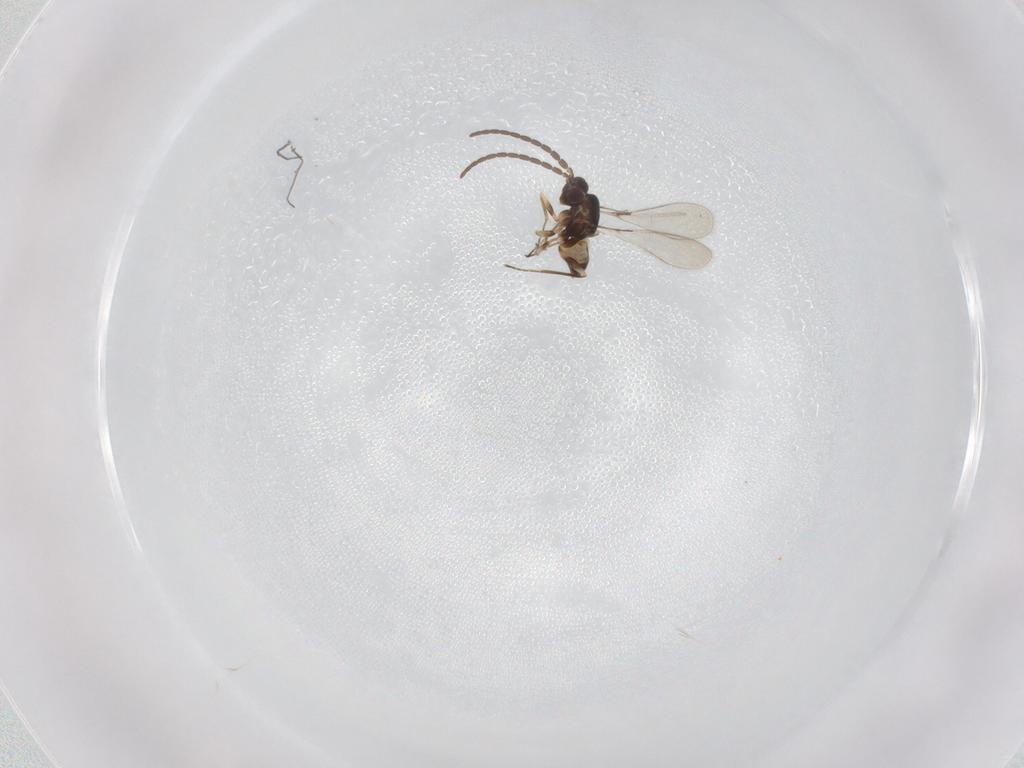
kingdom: Animalia
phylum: Arthropoda
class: Insecta
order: Hymenoptera
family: Mymaridae
